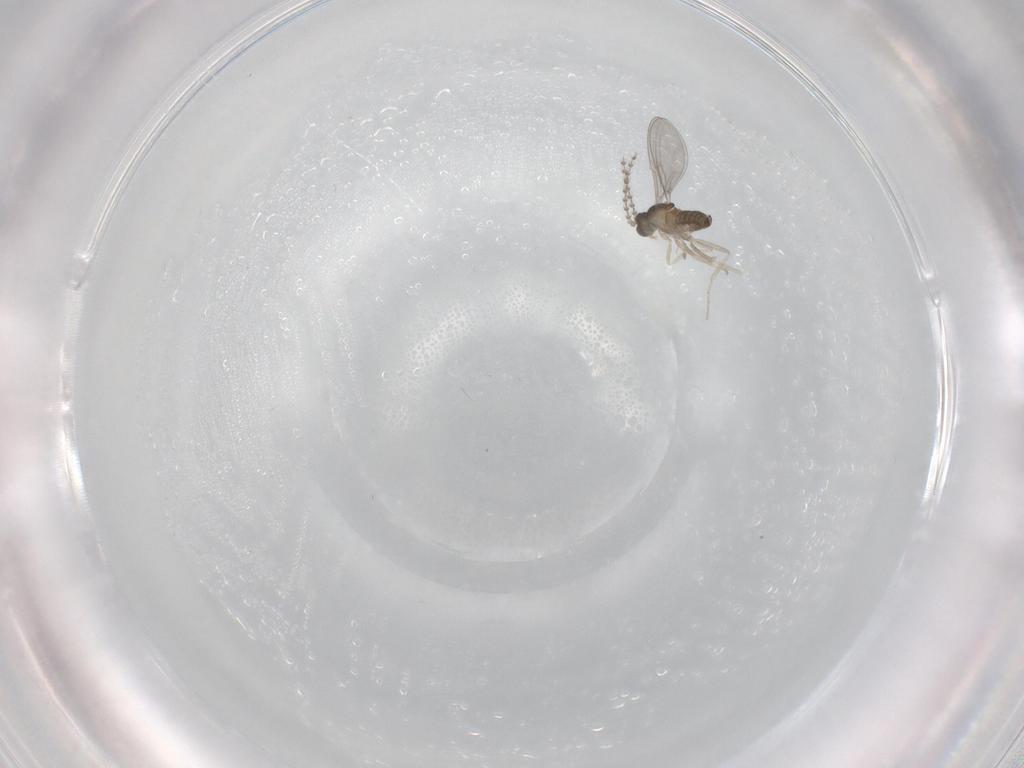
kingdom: Animalia
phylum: Arthropoda
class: Insecta
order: Diptera
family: Cecidomyiidae
